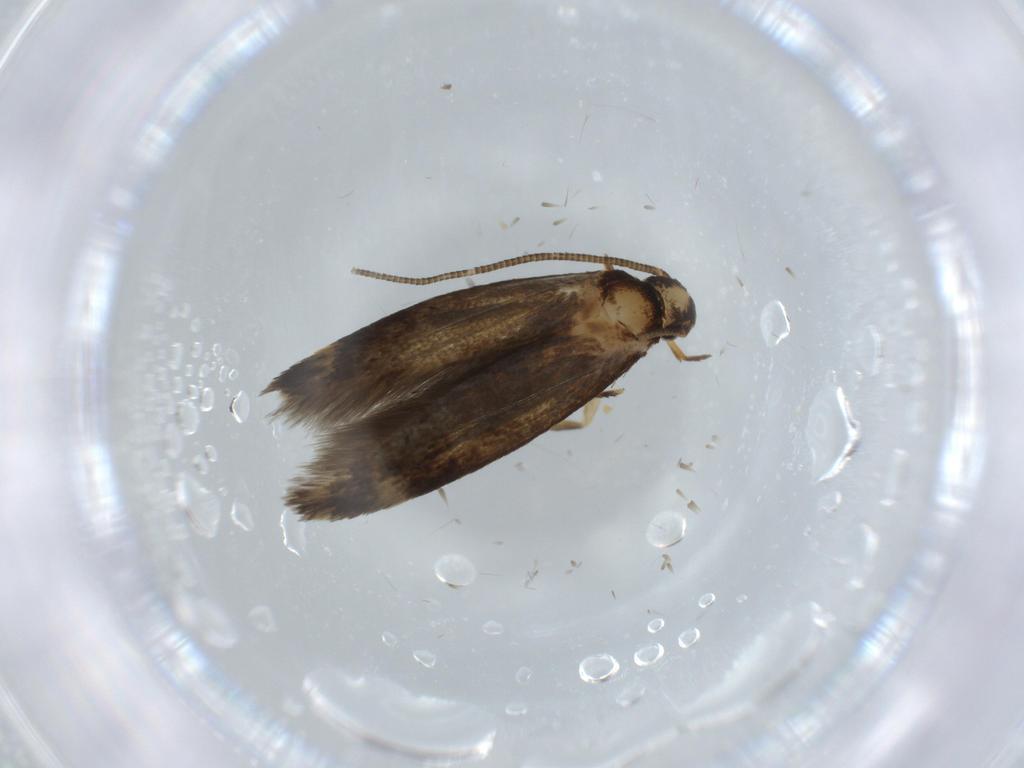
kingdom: Animalia
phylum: Arthropoda
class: Insecta
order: Lepidoptera
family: Tineidae
